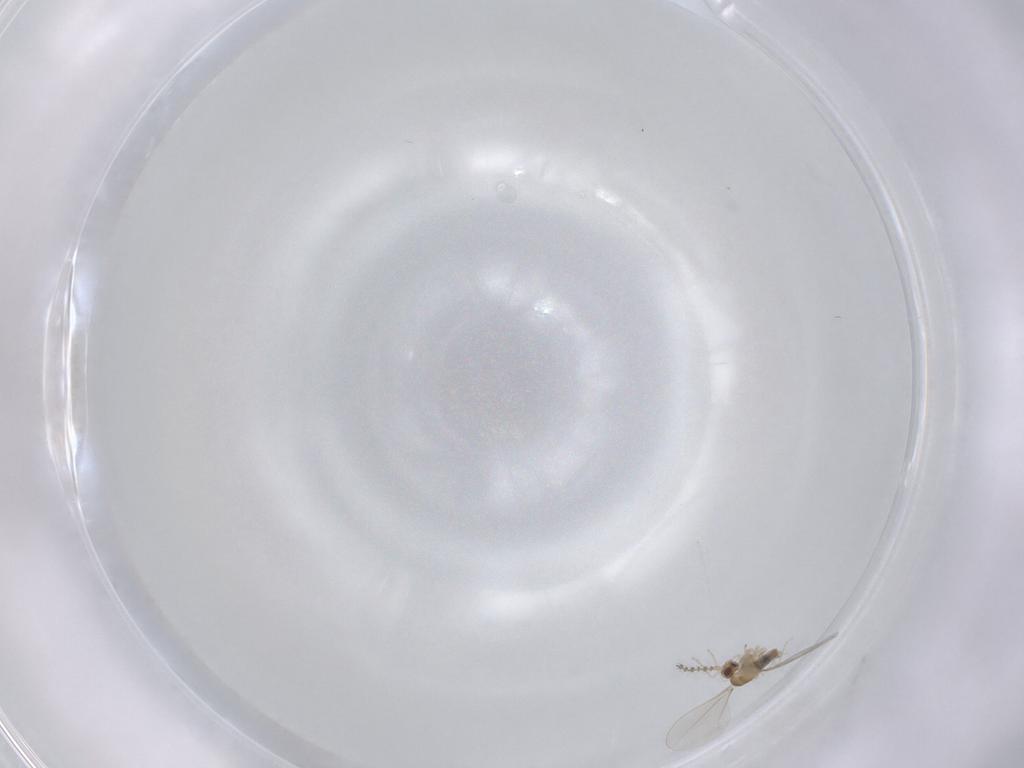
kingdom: Animalia
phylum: Arthropoda
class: Insecta
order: Diptera
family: Cecidomyiidae
